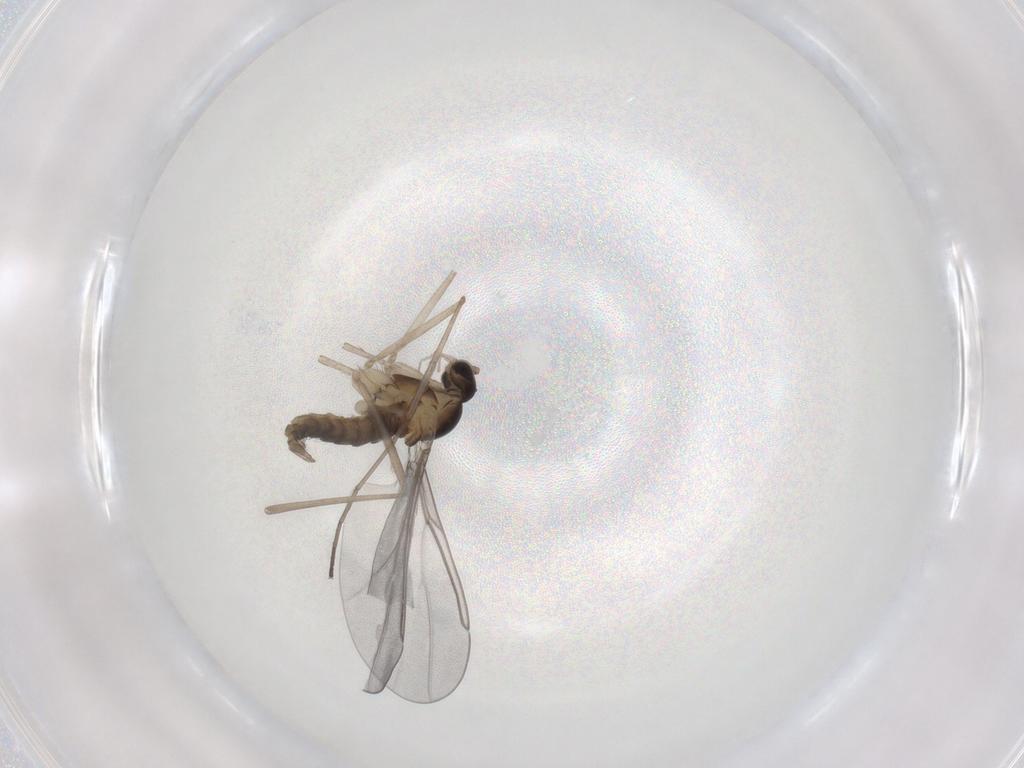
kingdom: Animalia
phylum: Arthropoda
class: Insecta
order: Diptera
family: Cecidomyiidae
